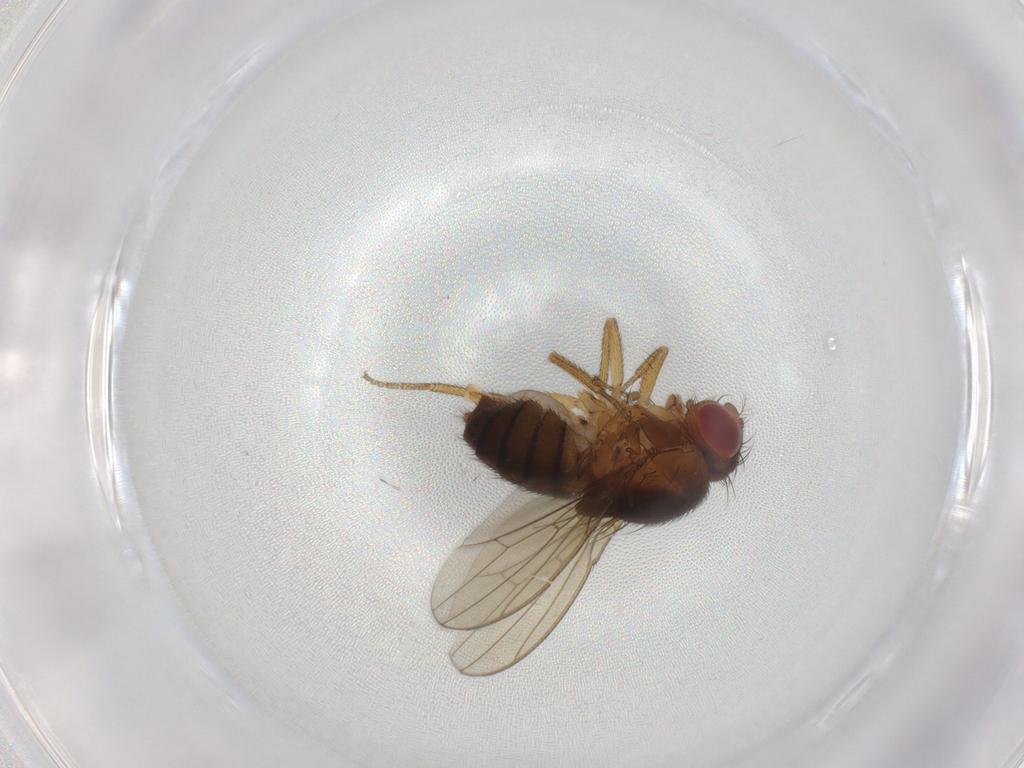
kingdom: Animalia
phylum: Arthropoda
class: Insecta
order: Diptera
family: Drosophilidae
